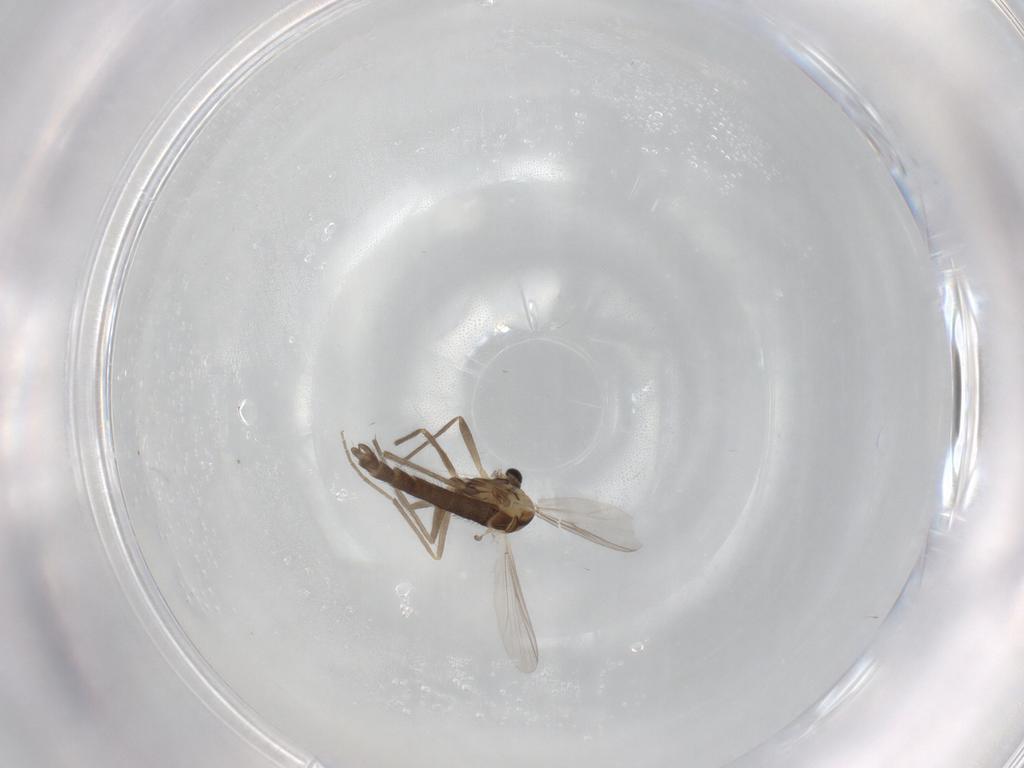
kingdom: Animalia
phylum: Arthropoda
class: Insecta
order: Diptera
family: Chironomidae
